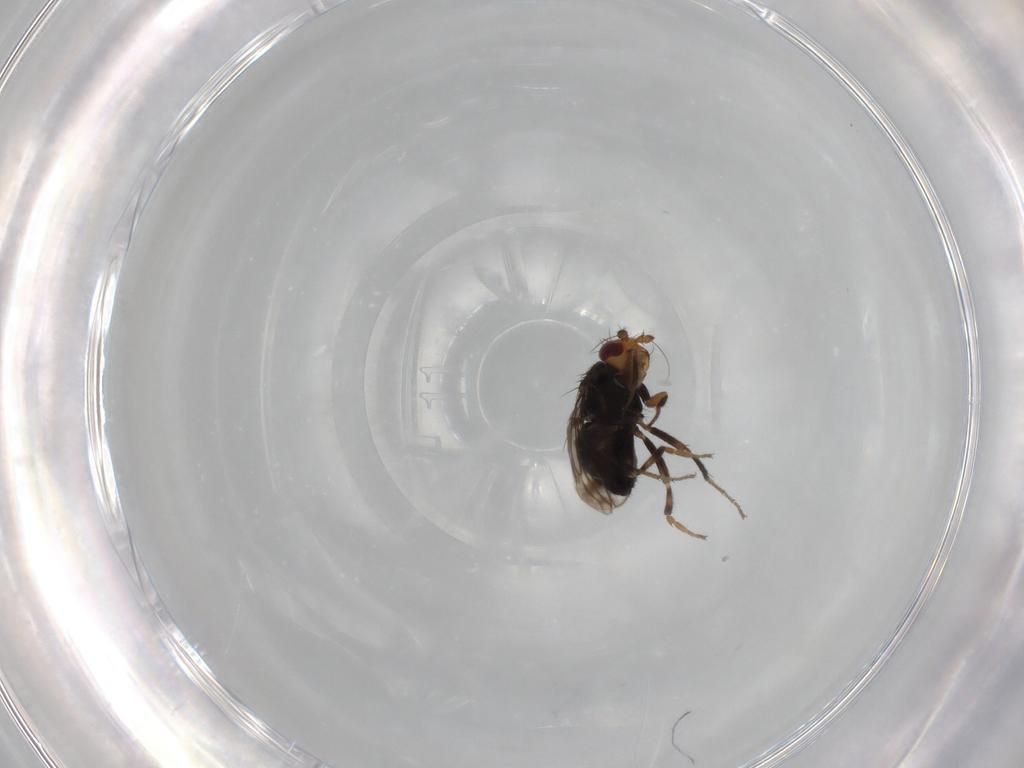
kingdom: Animalia
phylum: Arthropoda
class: Insecta
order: Diptera
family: Sphaeroceridae
